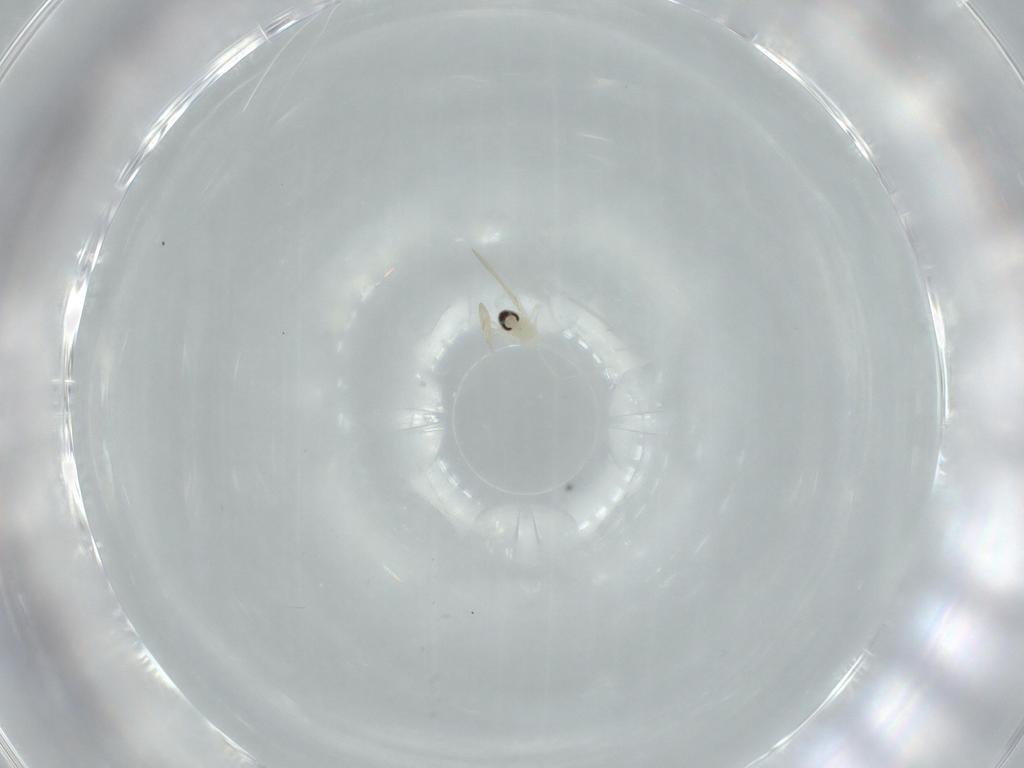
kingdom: Animalia
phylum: Arthropoda
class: Insecta
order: Diptera
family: Cecidomyiidae
